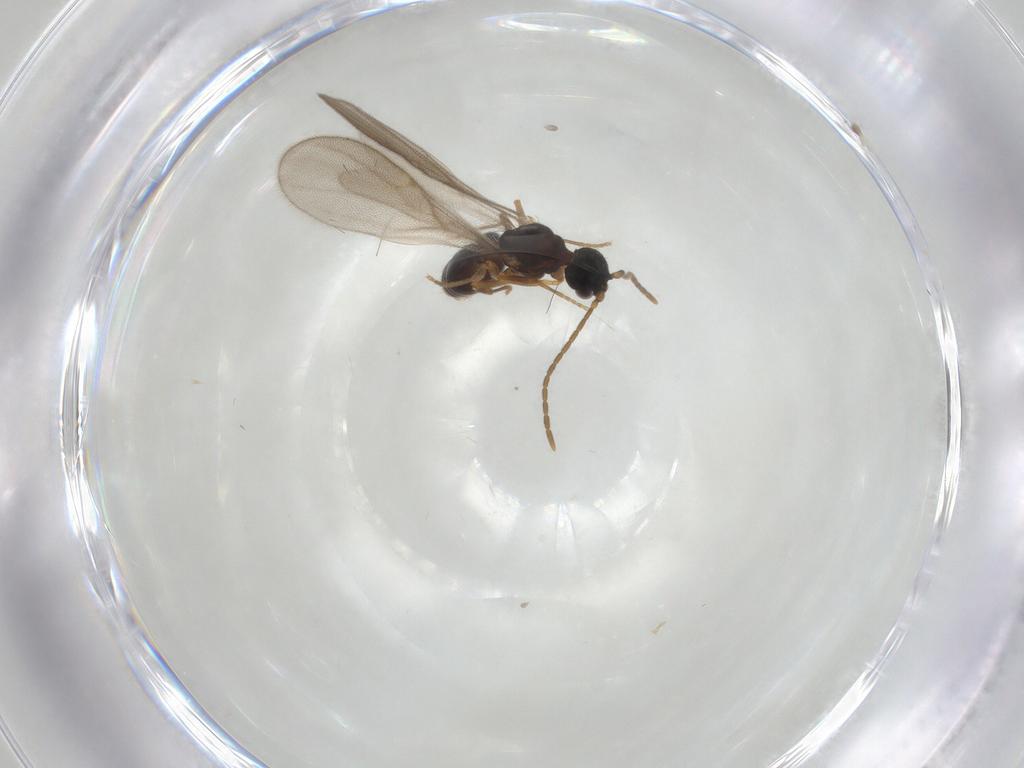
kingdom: Animalia
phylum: Arthropoda
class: Insecta
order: Hymenoptera
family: Formicidae
